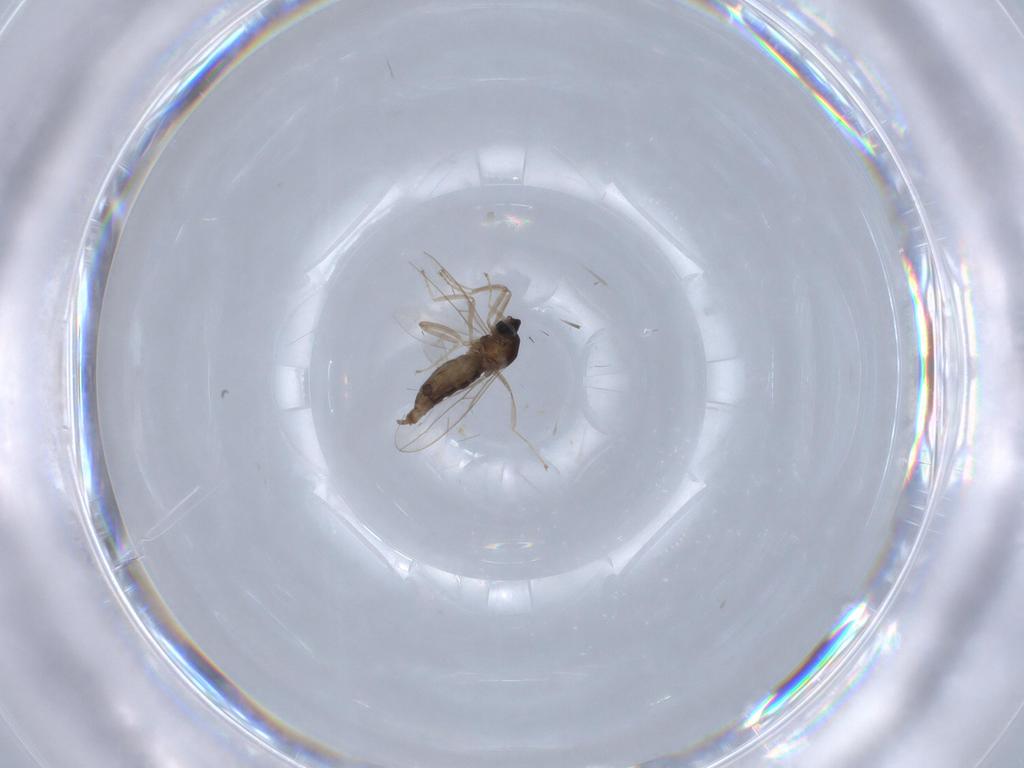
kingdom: Animalia
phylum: Arthropoda
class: Insecta
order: Diptera
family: Cecidomyiidae
